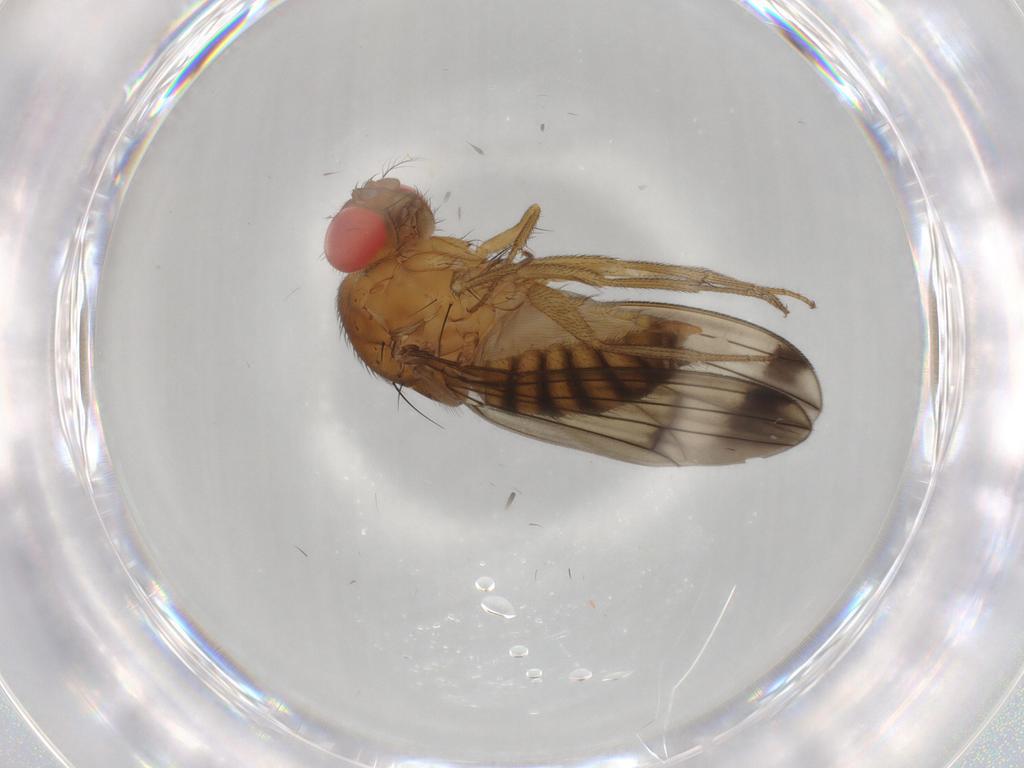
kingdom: Animalia
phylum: Arthropoda
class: Insecta
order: Diptera
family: Drosophilidae
